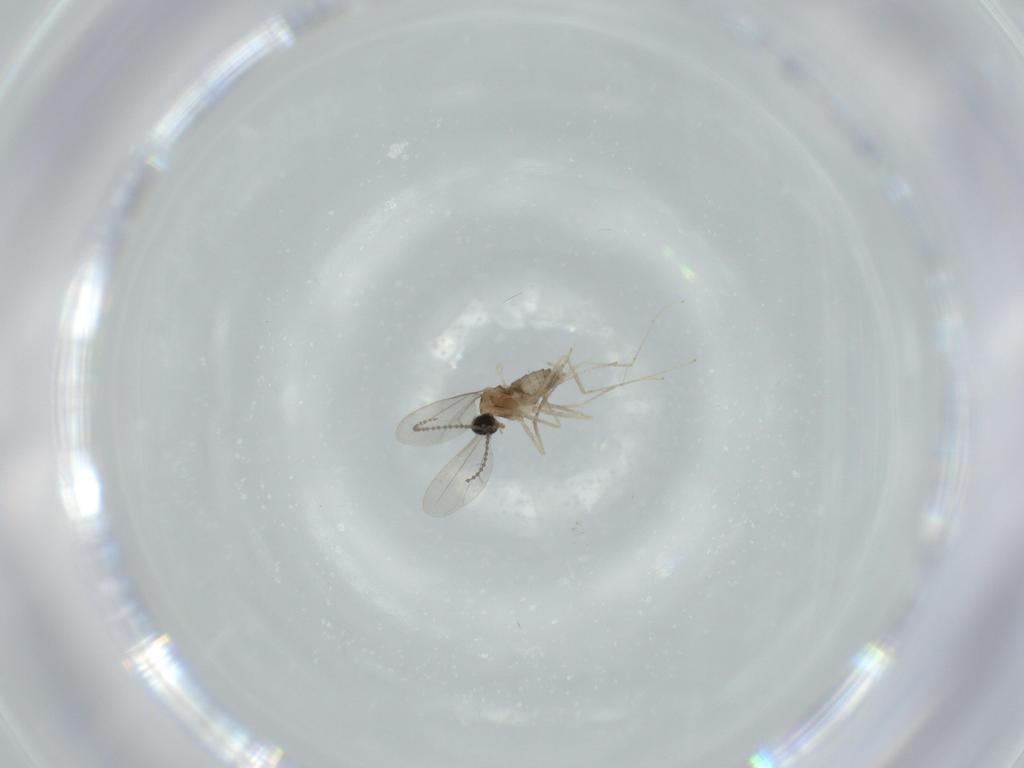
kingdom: Animalia
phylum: Arthropoda
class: Insecta
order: Diptera
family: Cecidomyiidae
